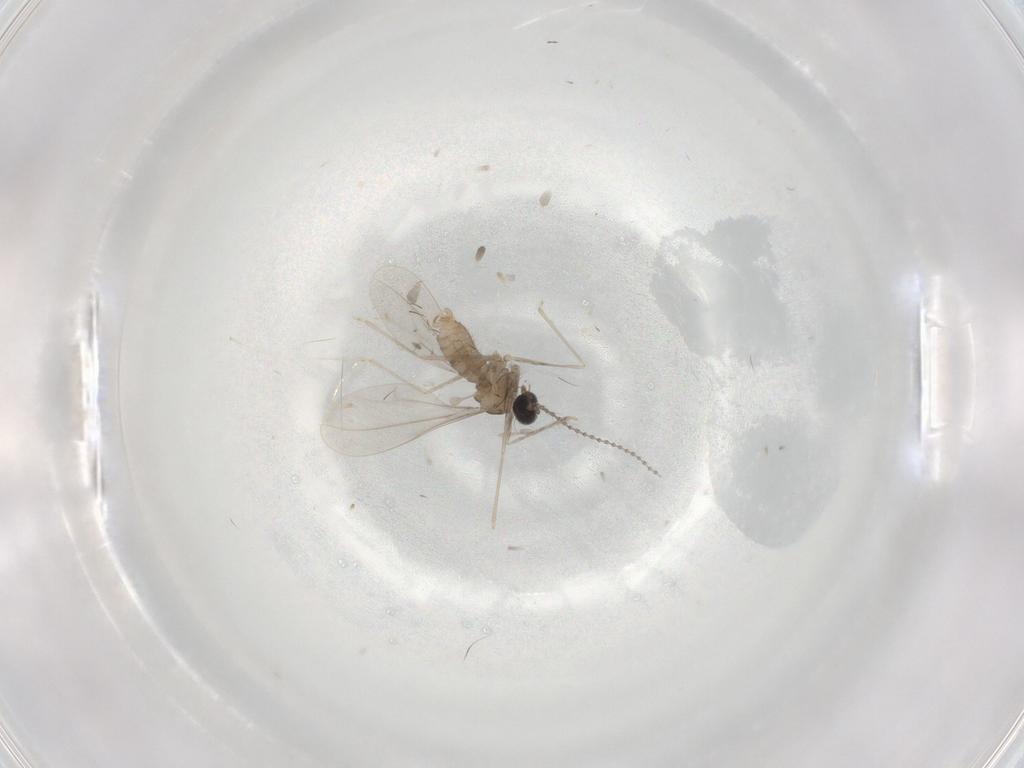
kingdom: Animalia
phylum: Arthropoda
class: Insecta
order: Diptera
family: Cecidomyiidae
